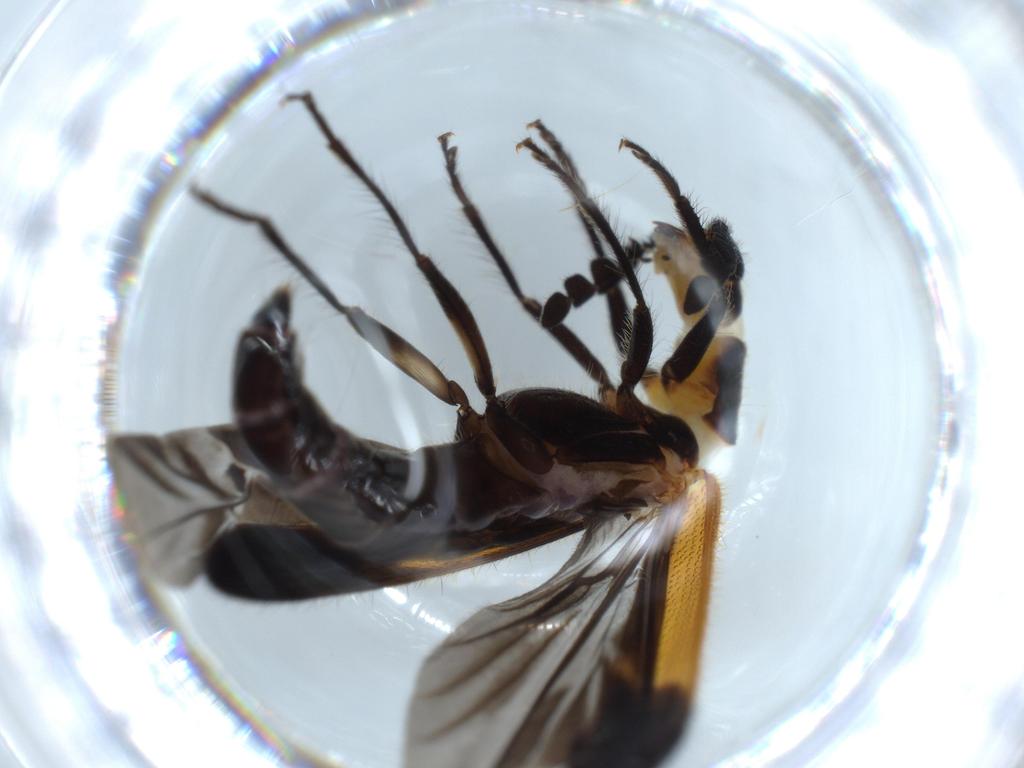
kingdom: Animalia
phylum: Arthropoda
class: Insecta
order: Coleoptera
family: Cleridae
